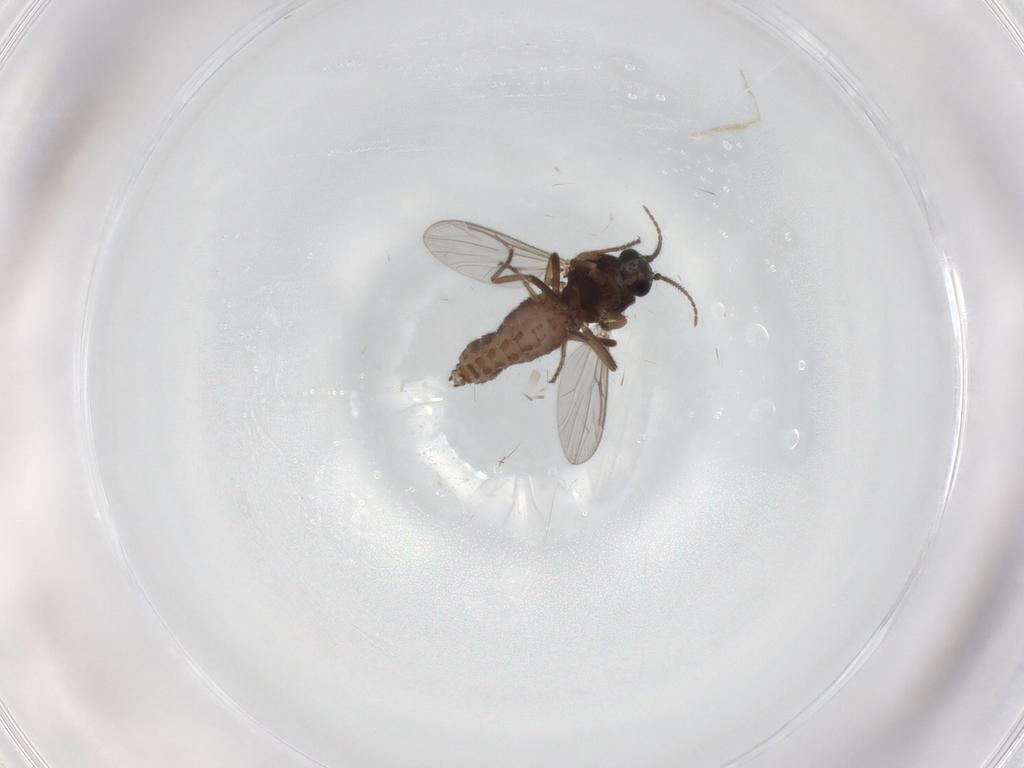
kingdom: Animalia
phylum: Arthropoda
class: Insecta
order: Diptera
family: Ceratopogonidae
